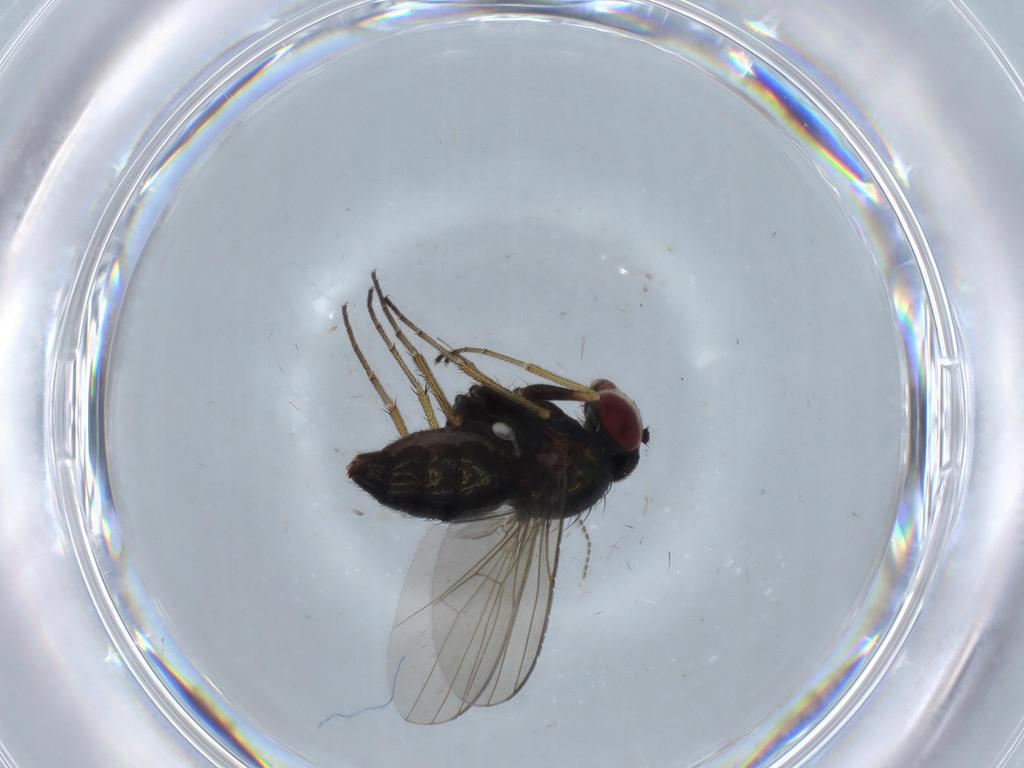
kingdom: Animalia
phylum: Arthropoda
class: Insecta
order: Diptera
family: Dolichopodidae
